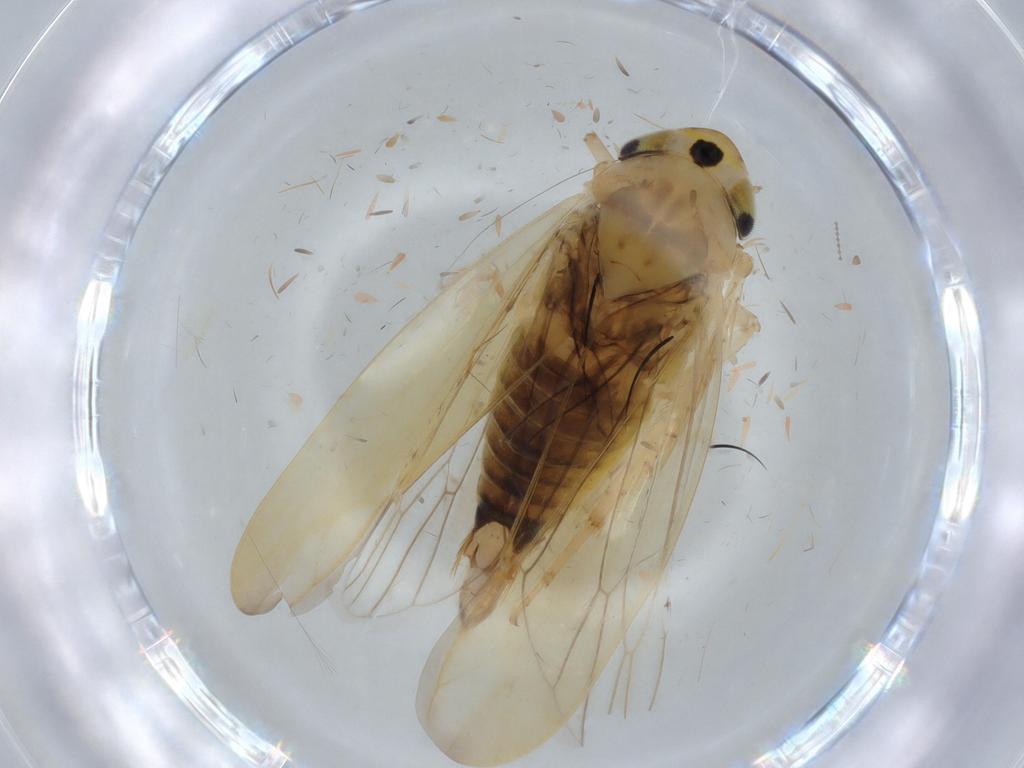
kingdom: Animalia
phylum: Arthropoda
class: Insecta
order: Hemiptera
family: Cicadellidae
